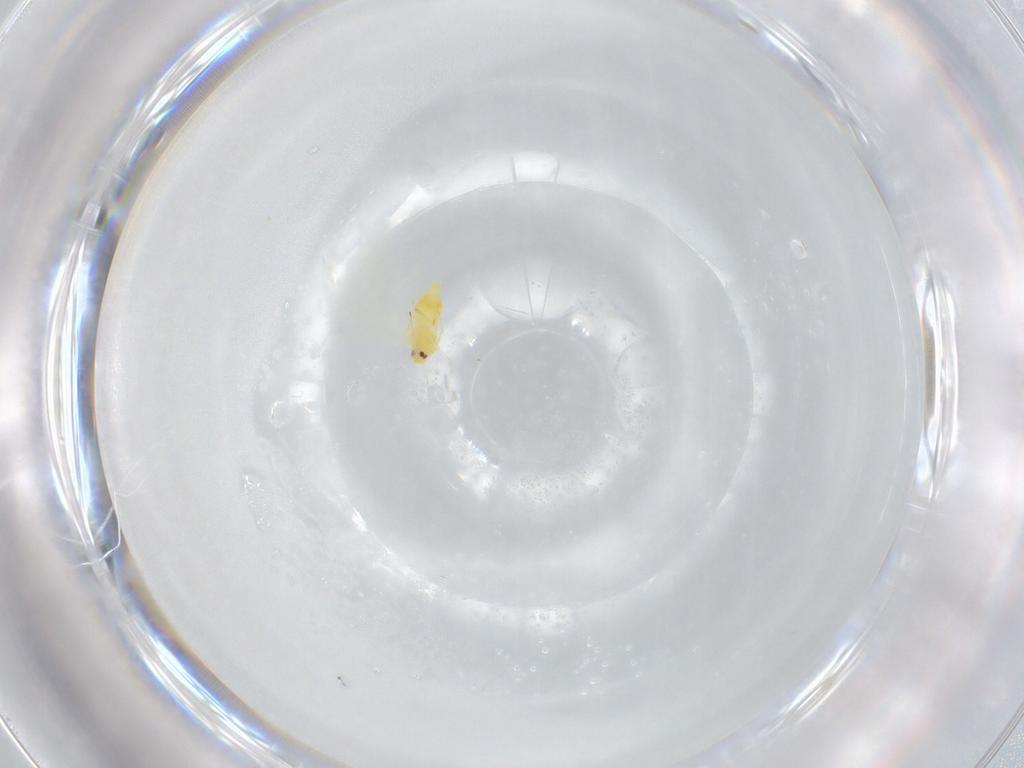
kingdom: Animalia
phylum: Arthropoda
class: Insecta
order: Hemiptera
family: Aleyrodidae
